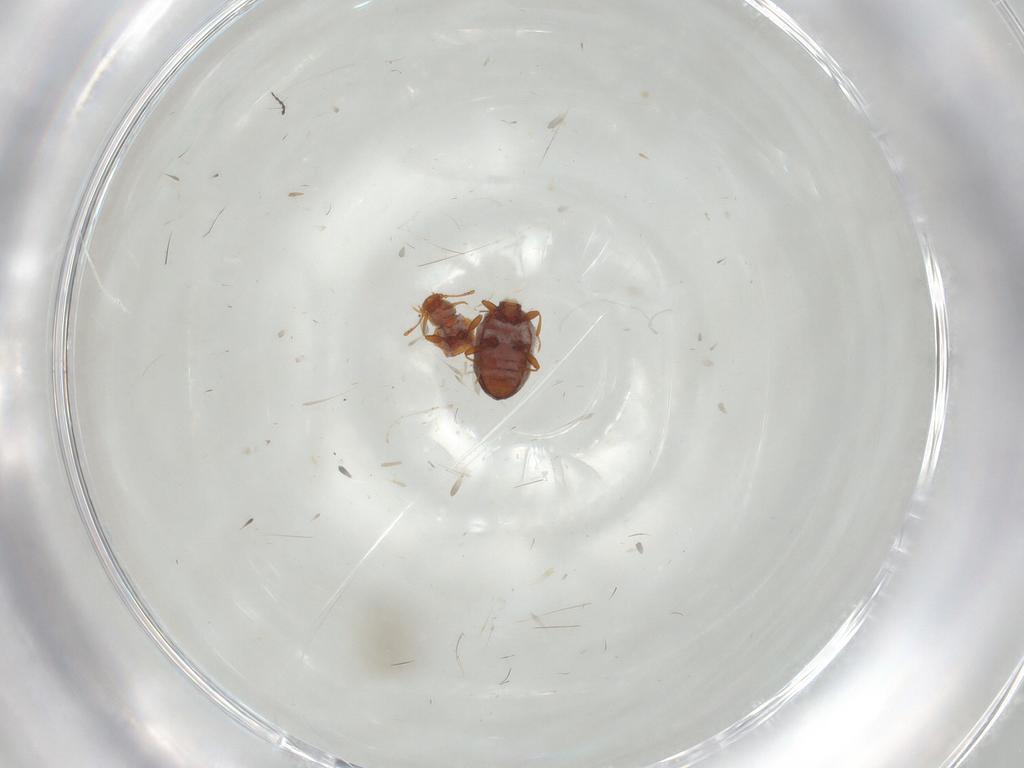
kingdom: Animalia
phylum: Arthropoda
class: Insecta
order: Coleoptera
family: Latridiidae
